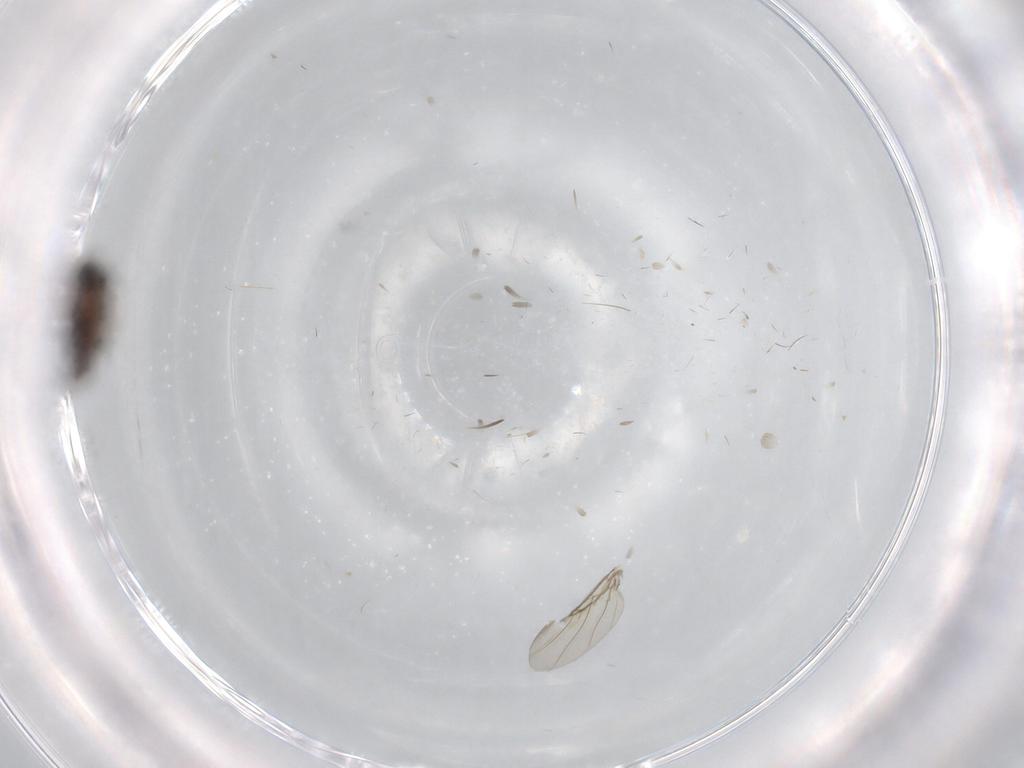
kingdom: Animalia
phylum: Arthropoda
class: Insecta
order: Diptera
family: Phoridae
